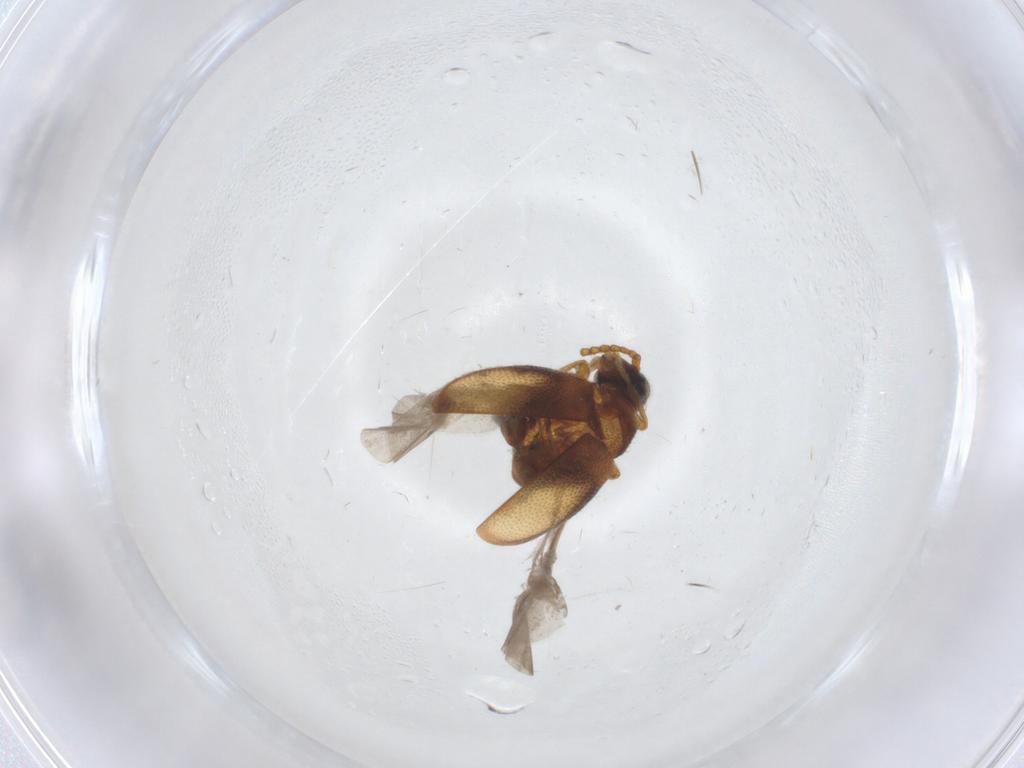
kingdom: Animalia
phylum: Arthropoda
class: Insecta
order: Coleoptera
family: Aderidae
